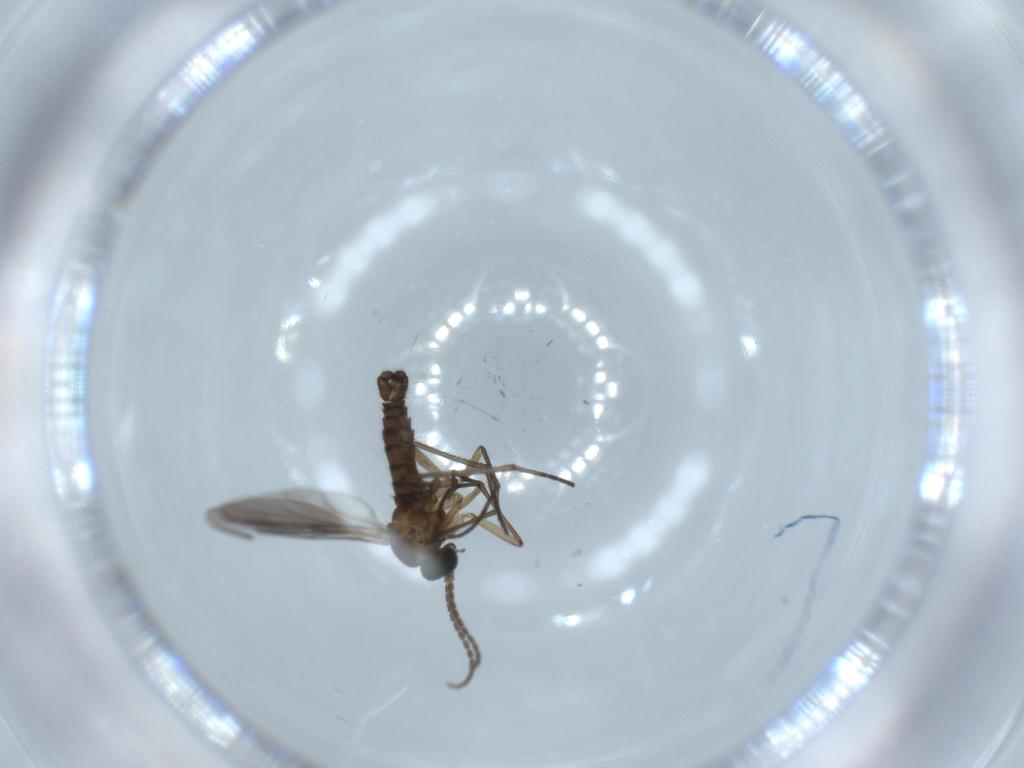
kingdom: Animalia
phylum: Arthropoda
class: Insecta
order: Diptera
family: Sciaridae
